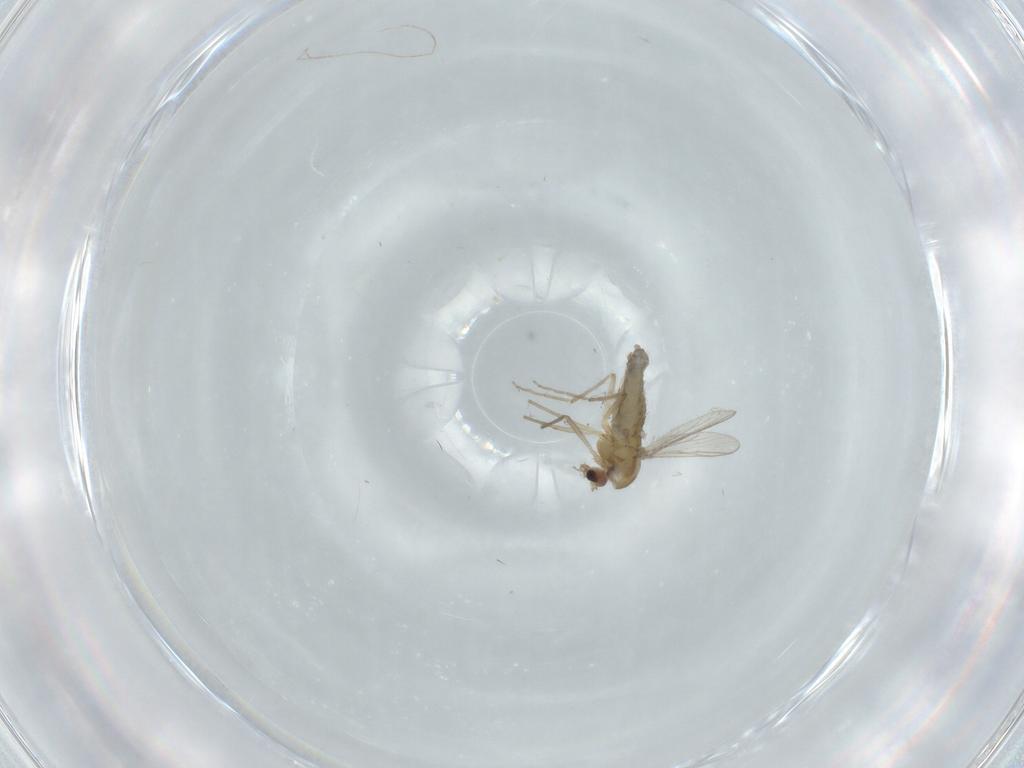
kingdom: Animalia
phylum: Arthropoda
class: Insecta
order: Diptera
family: Chironomidae
